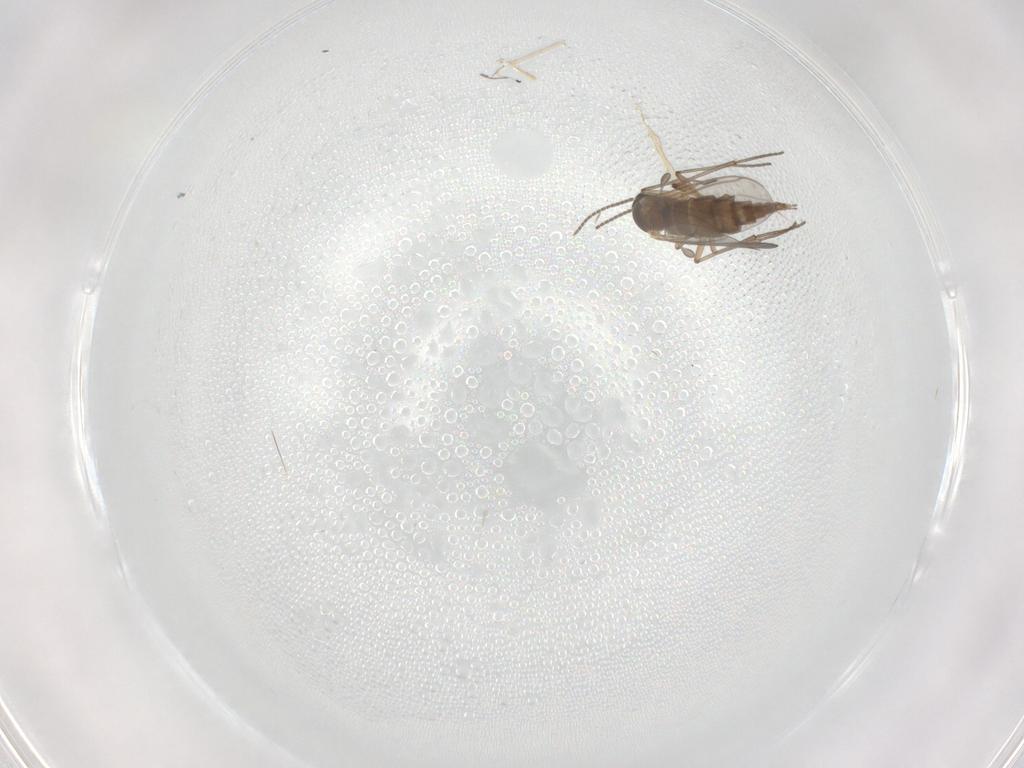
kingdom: Animalia
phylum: Arthropoda
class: Insecta
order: Diptera
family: Sciaridae
